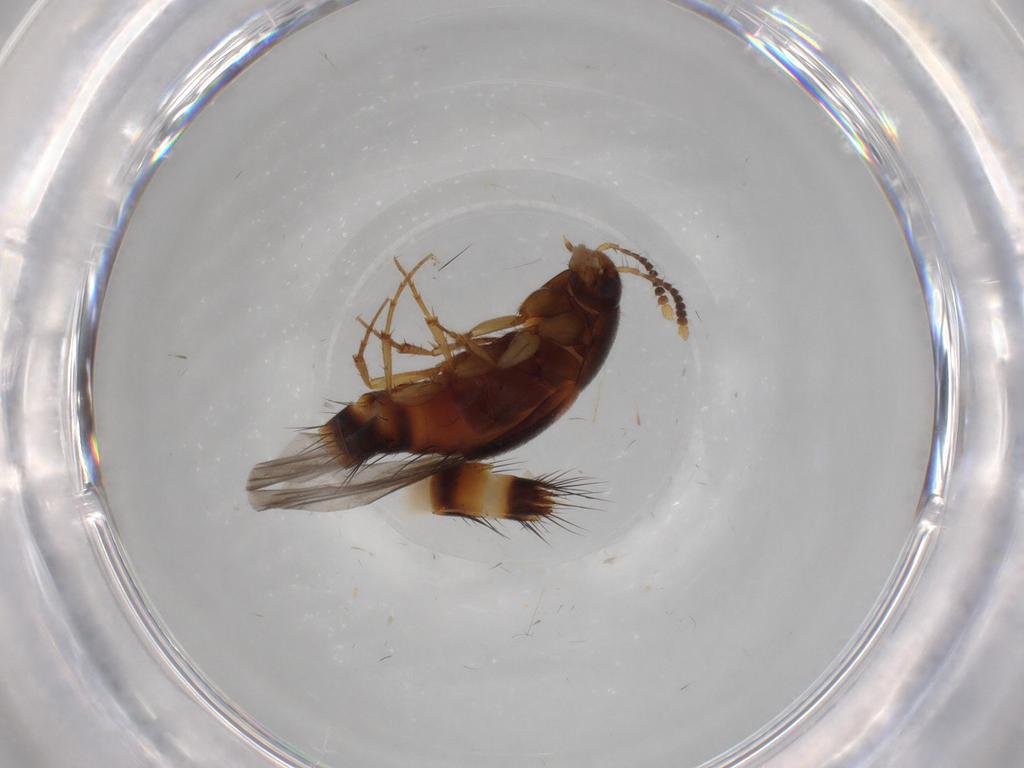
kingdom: Animalia
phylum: Arthropoda
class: Insecta
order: Coleoptera
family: Staphylinidae
